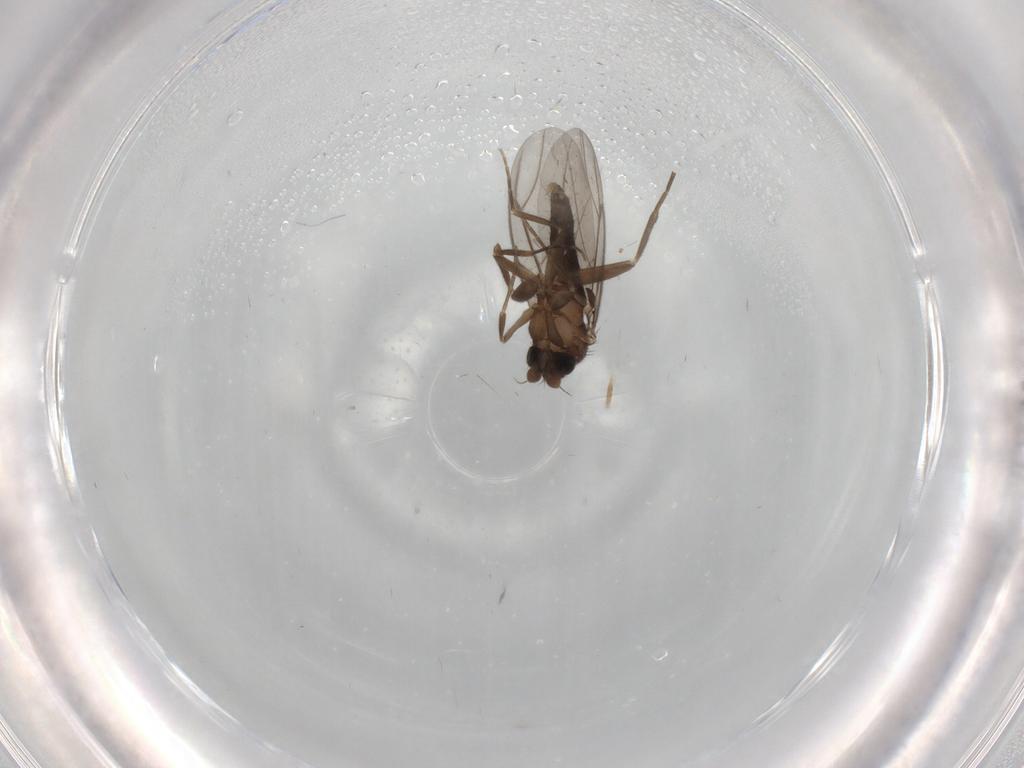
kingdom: Animalia
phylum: Arthropoda
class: Insecta
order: Diptera
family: Phoridae
